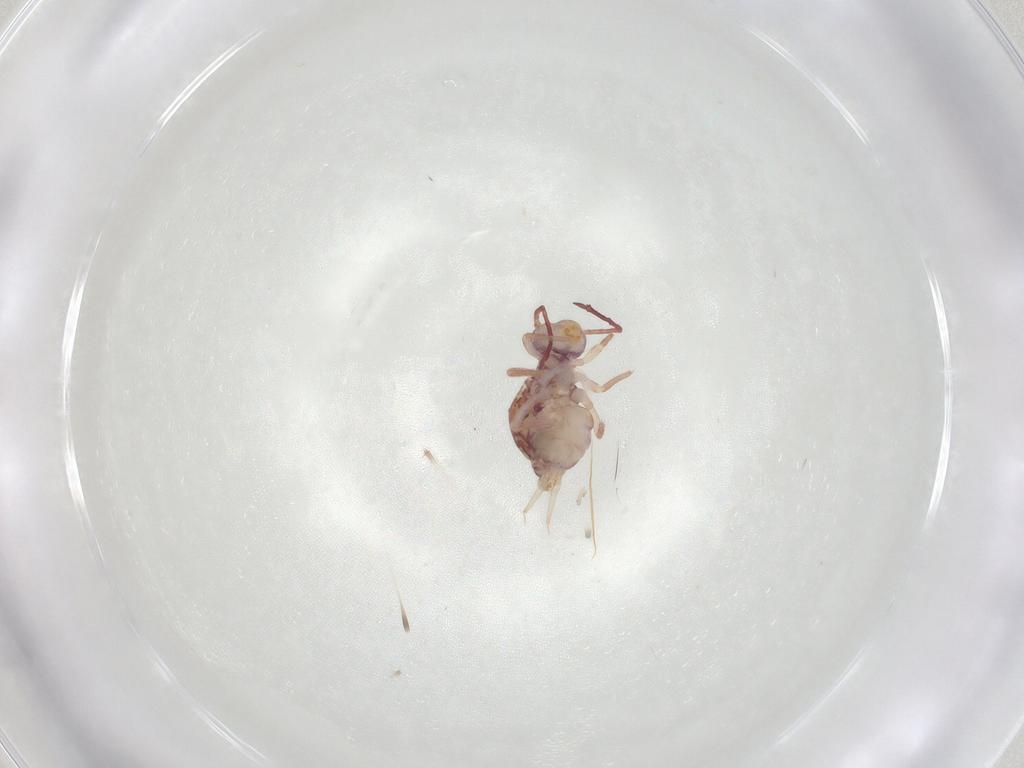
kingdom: Animalia
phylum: Arthropoda
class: Collembola
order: Symphypleona
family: Dicyrtomidae
